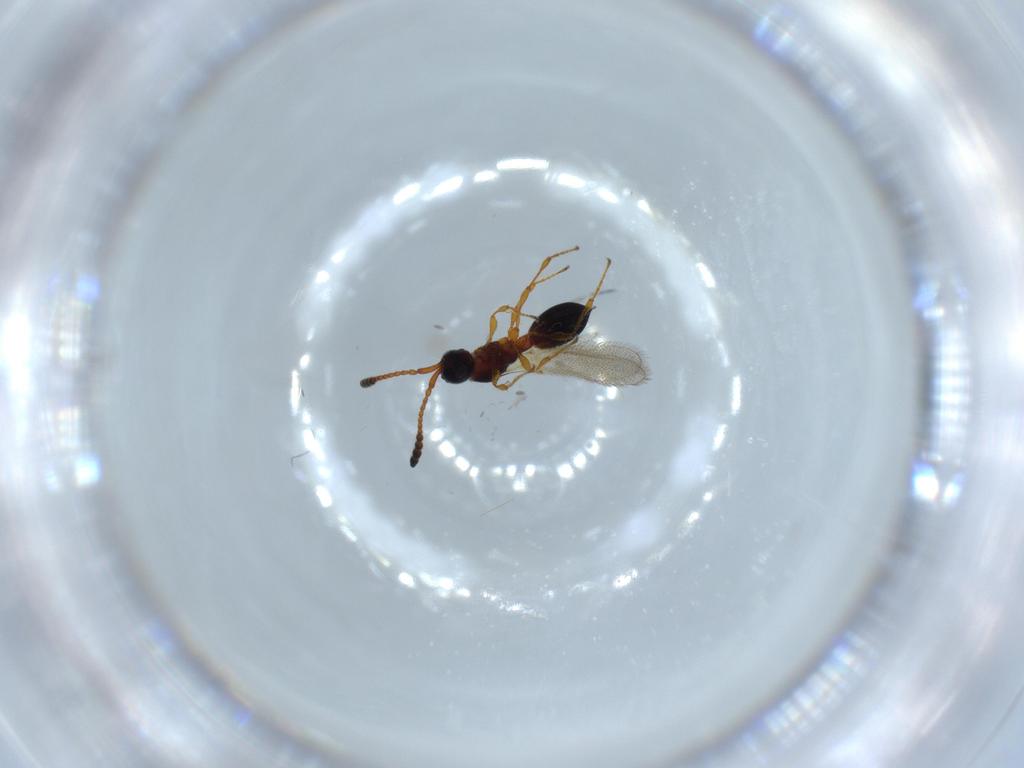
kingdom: Animalia
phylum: Arthropoda
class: Insecta
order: Hymenoptera
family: Diapriidae
